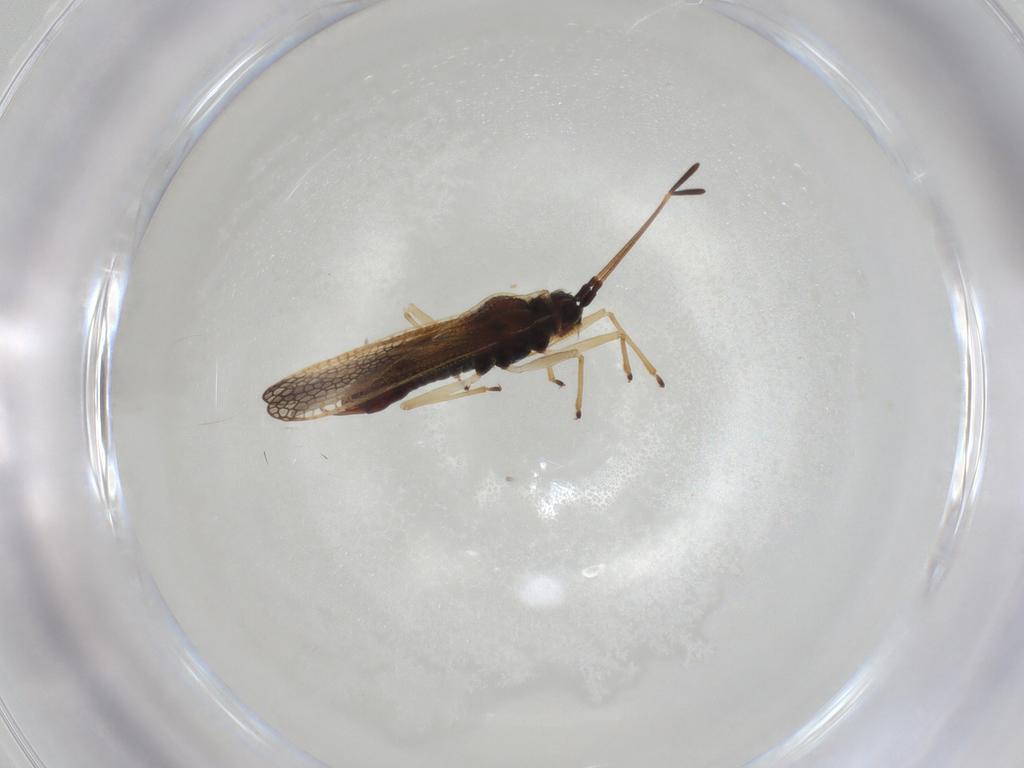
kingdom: Animalia
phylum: Arthropoda
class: Insecta
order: Hemiptera
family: Tingidae
